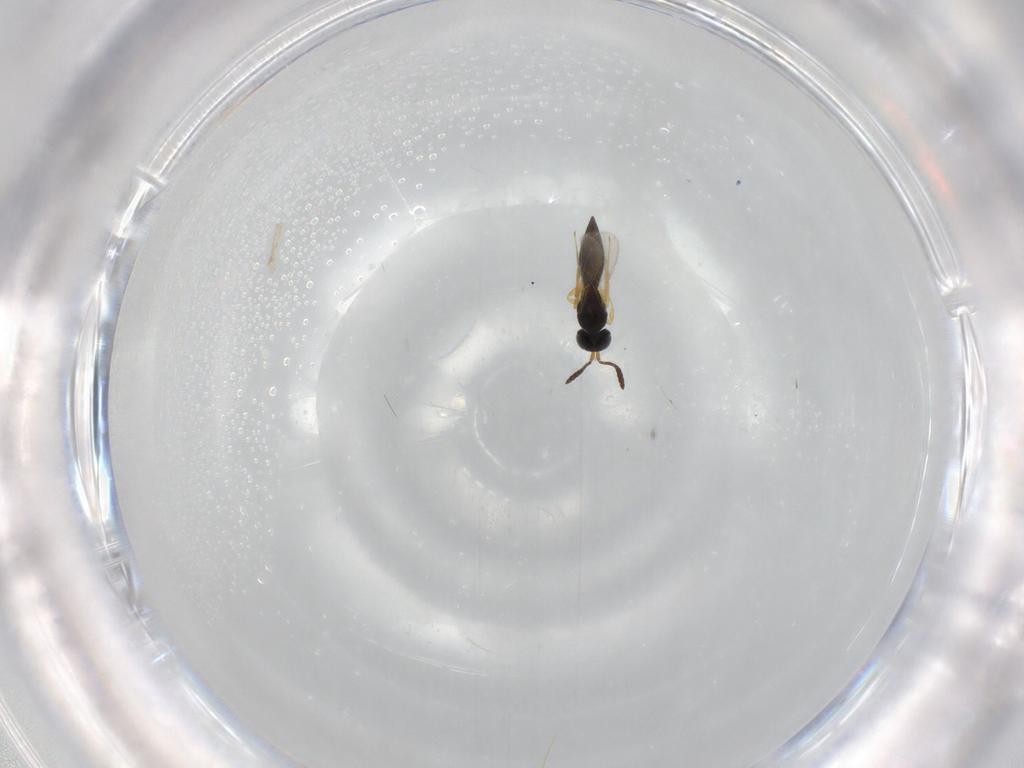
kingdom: Animalia
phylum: Arthropoda
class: Insecta
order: Hymenoptera
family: Scelionidae
